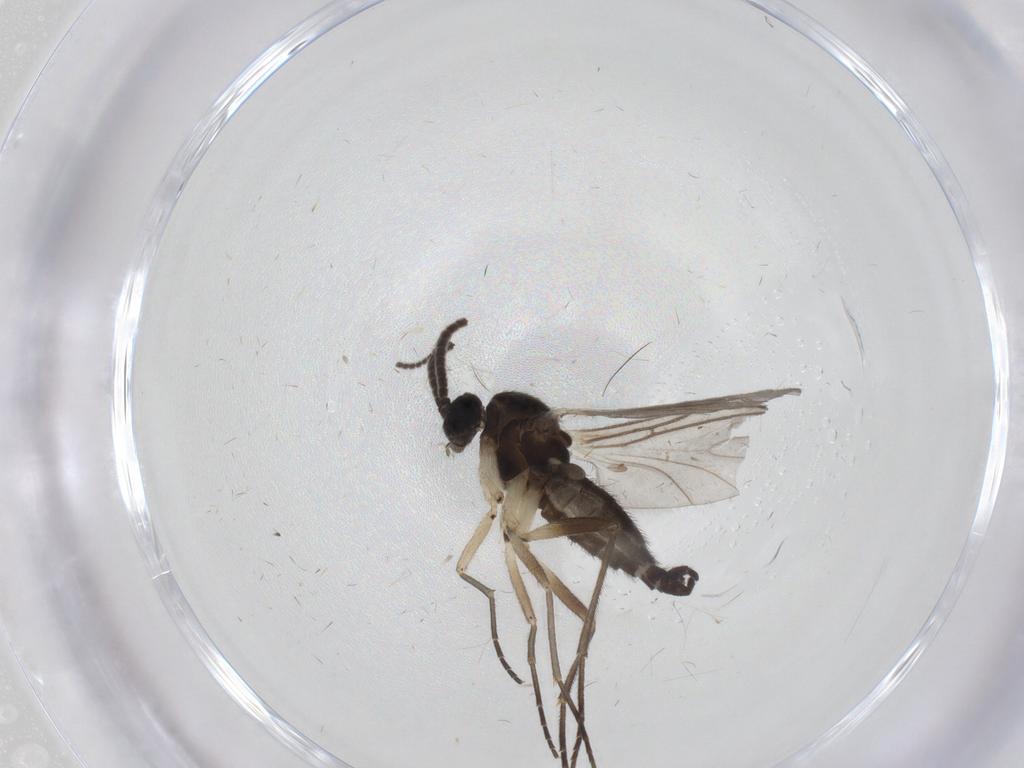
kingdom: Animalia
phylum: Arthropoda
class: Insecta
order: Diptera
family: Sciaridae
